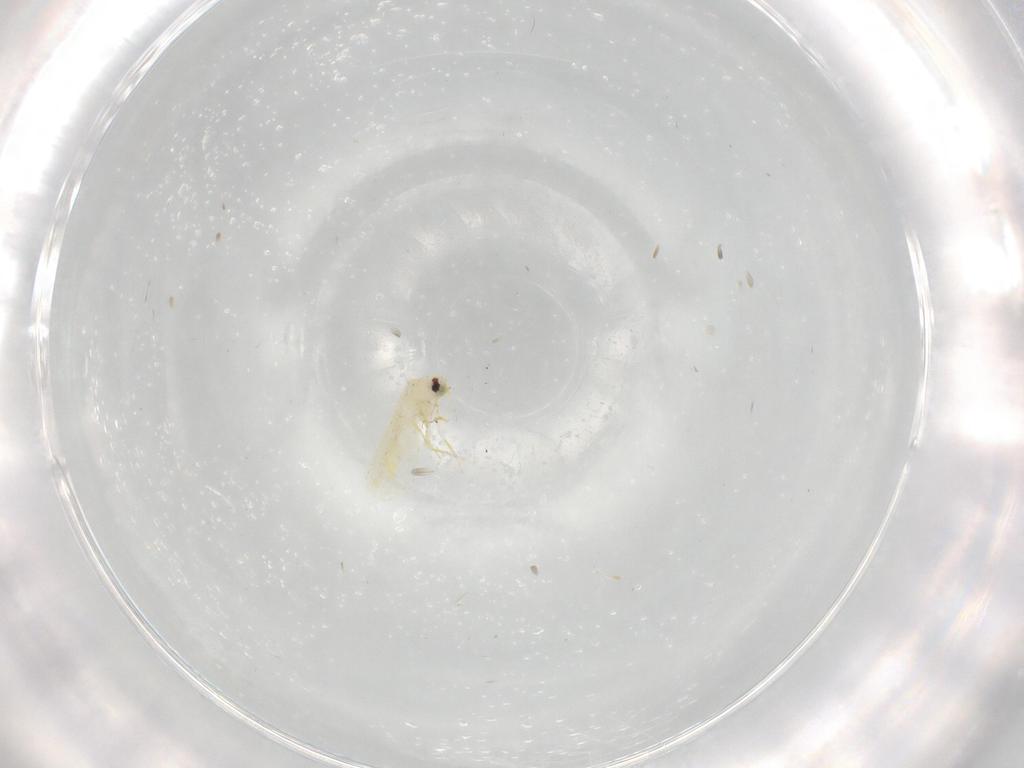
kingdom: Animalia
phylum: Arthropoda
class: Insecta
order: Hemiptera
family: Aleyrodidae
